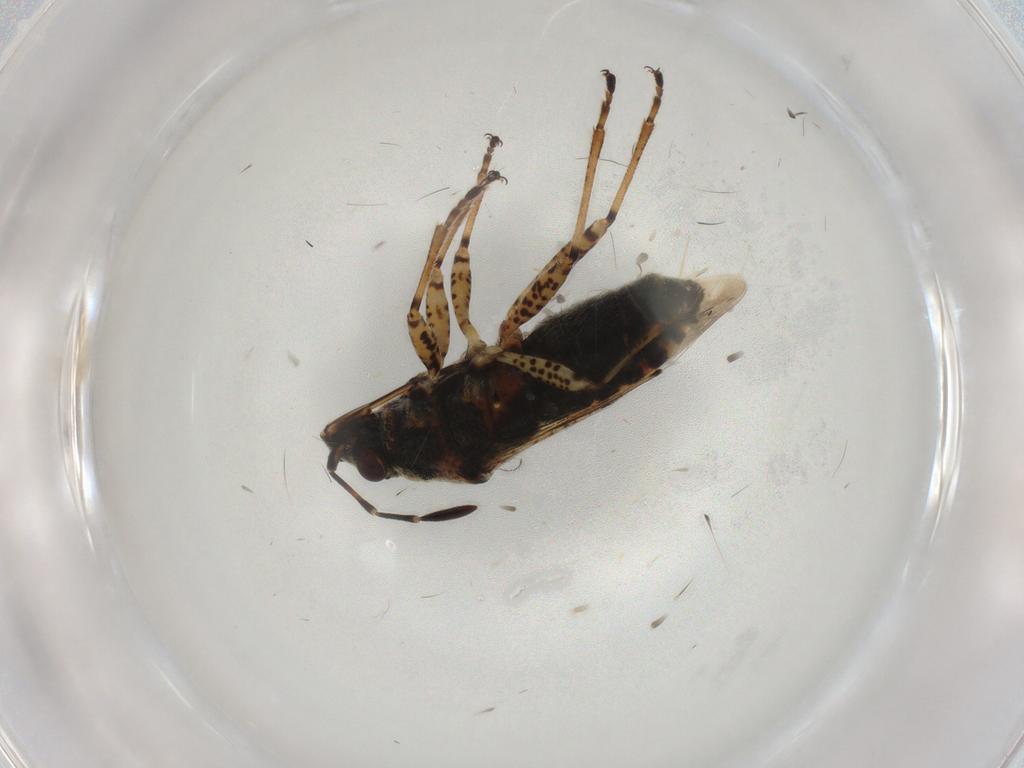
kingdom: Animalia
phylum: Arthropoda
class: Insecta
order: Hemiptera
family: Lygaeidae
